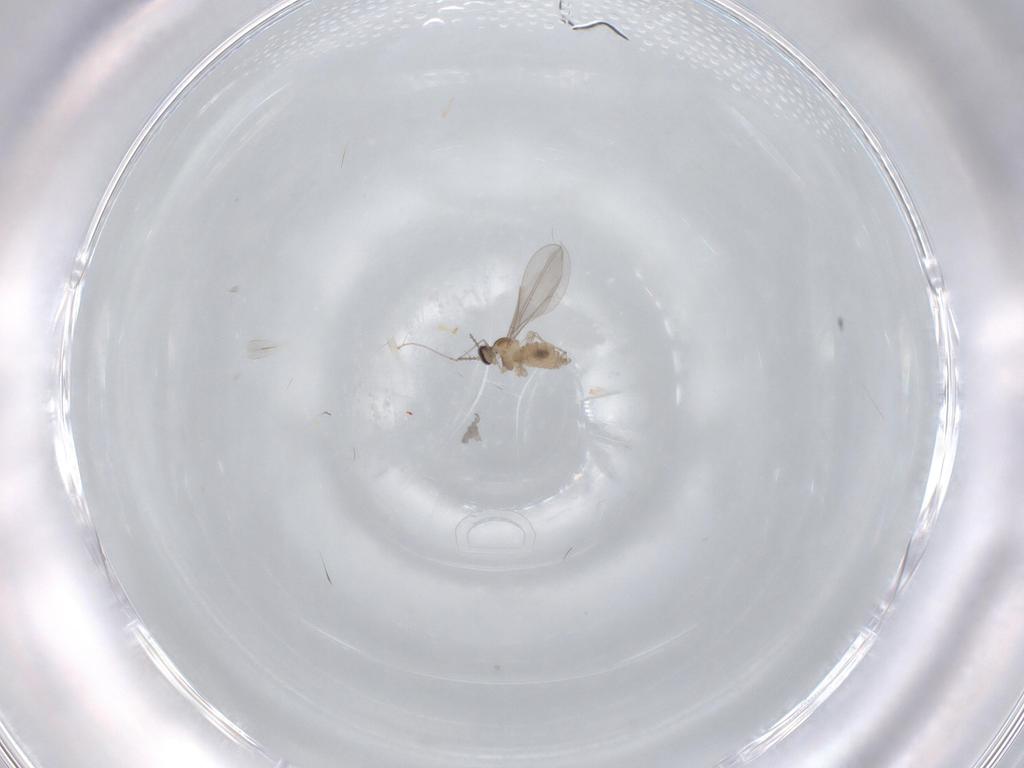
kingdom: Animalia
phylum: Arthropoda
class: Insecta
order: Diptera
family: Cecidomyiidae
